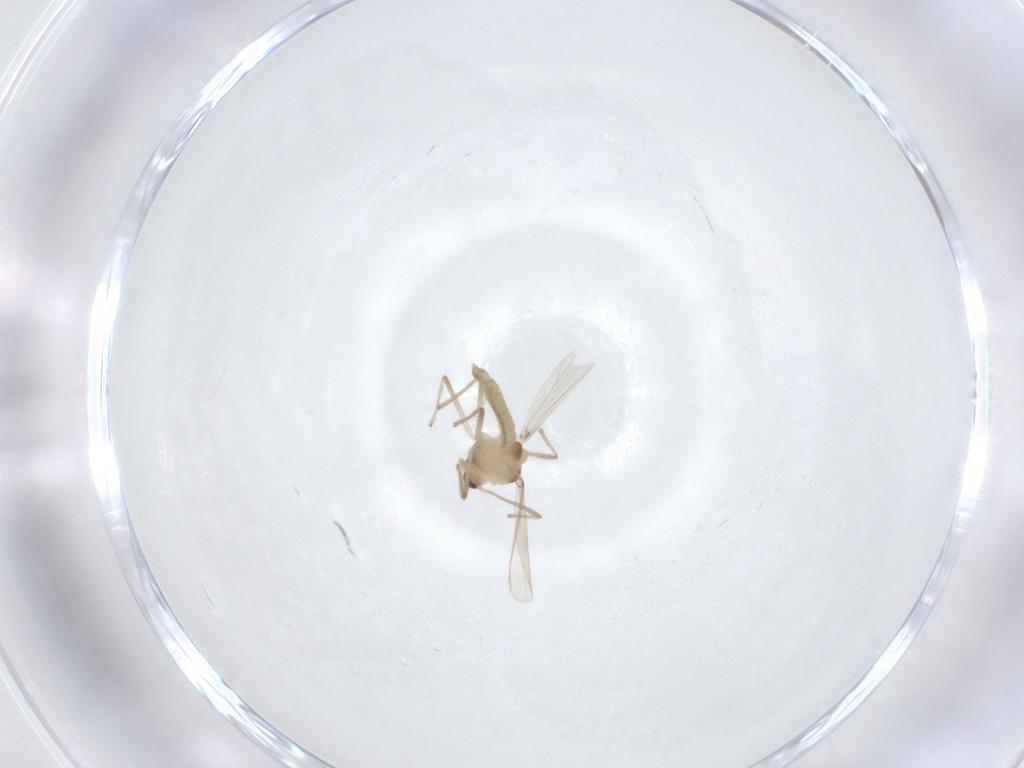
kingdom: Animalia
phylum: Arthropoda
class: Insecta
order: Diptera
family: Chironomidae
